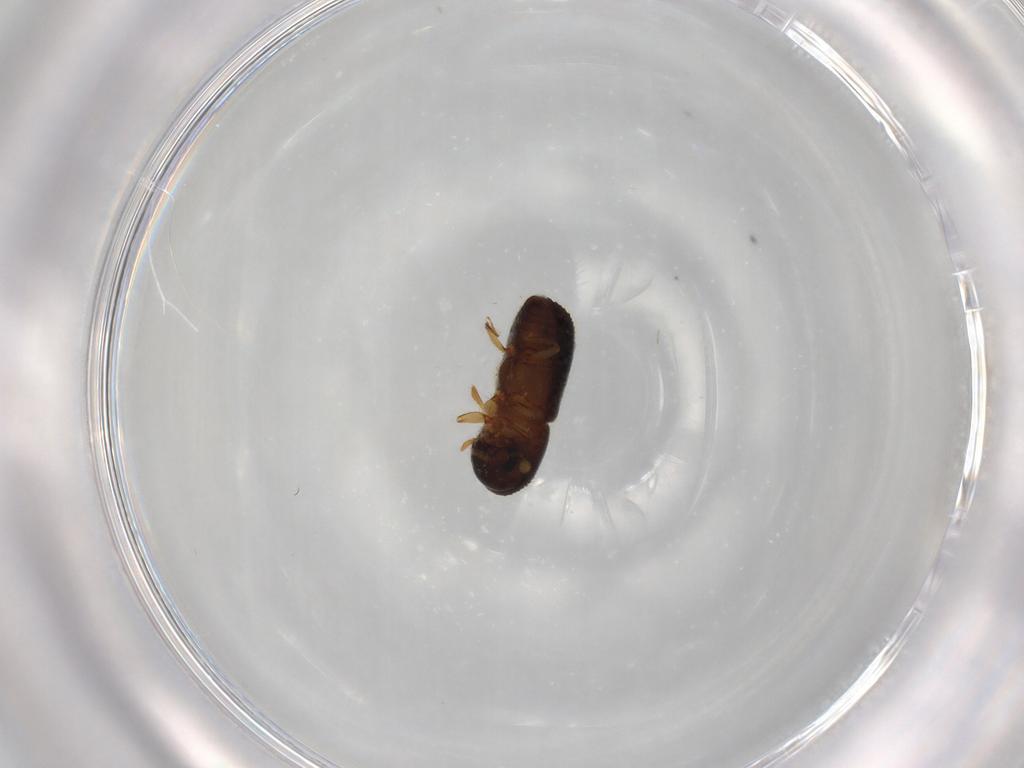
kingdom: Animalia
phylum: Arthropoda
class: Insecta
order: Coleoptera
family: Curculionidae
